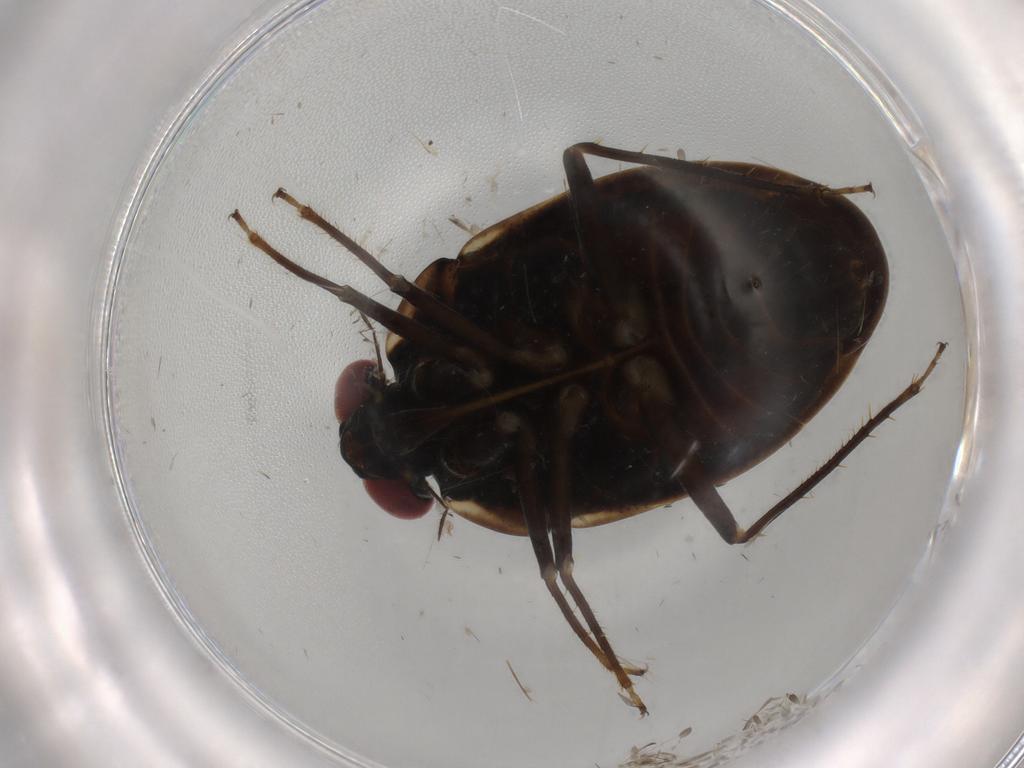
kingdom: Animalia
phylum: Arthropoda
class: Insecta
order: Hemiptera
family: Ochteridae
